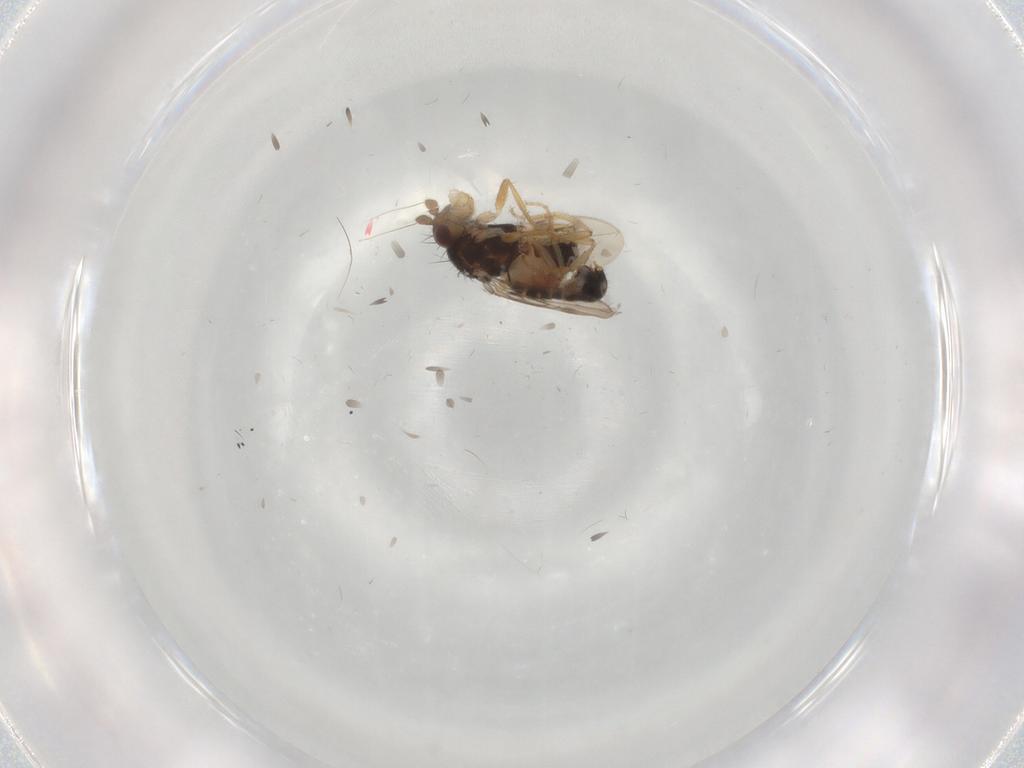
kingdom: Animalia
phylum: Arthropoda
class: Insecta
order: Diptera
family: Sphaeroceridae
